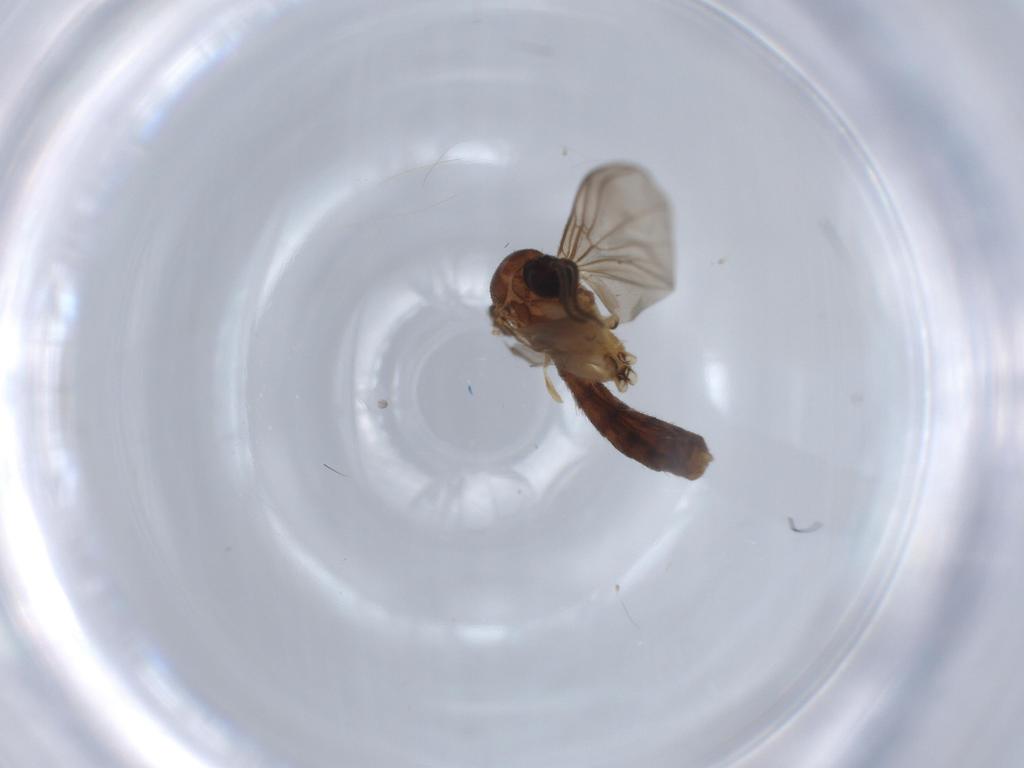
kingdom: Animalia
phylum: Arthropoda
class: Insecta
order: Diptera
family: Mycetophilidae
